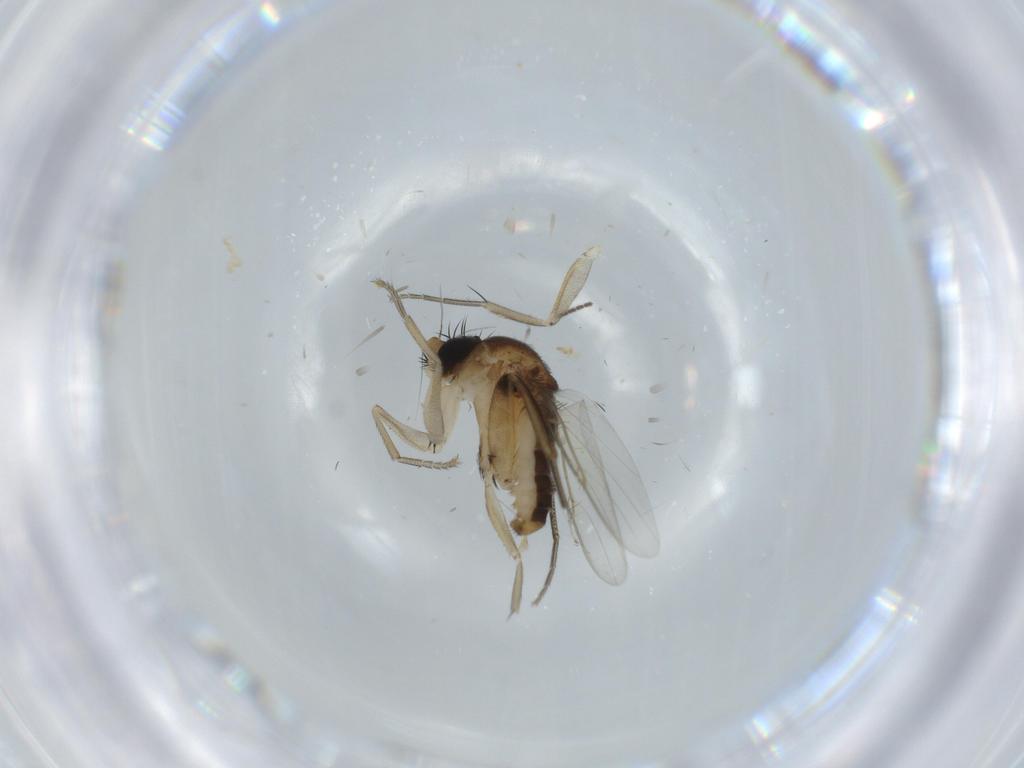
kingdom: Animalia
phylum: Arthropoda
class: Insecta
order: Diptera
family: Phoridae
